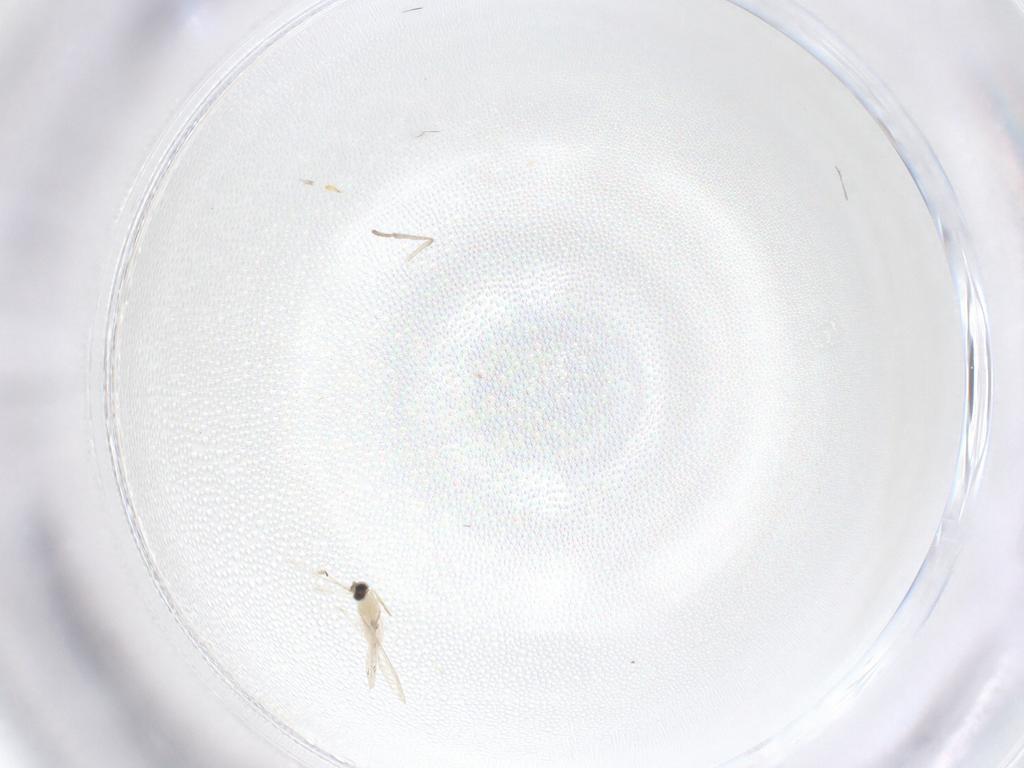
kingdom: Animalia
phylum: Arthropoda
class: Insecta
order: Diptera
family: Psychodidae
